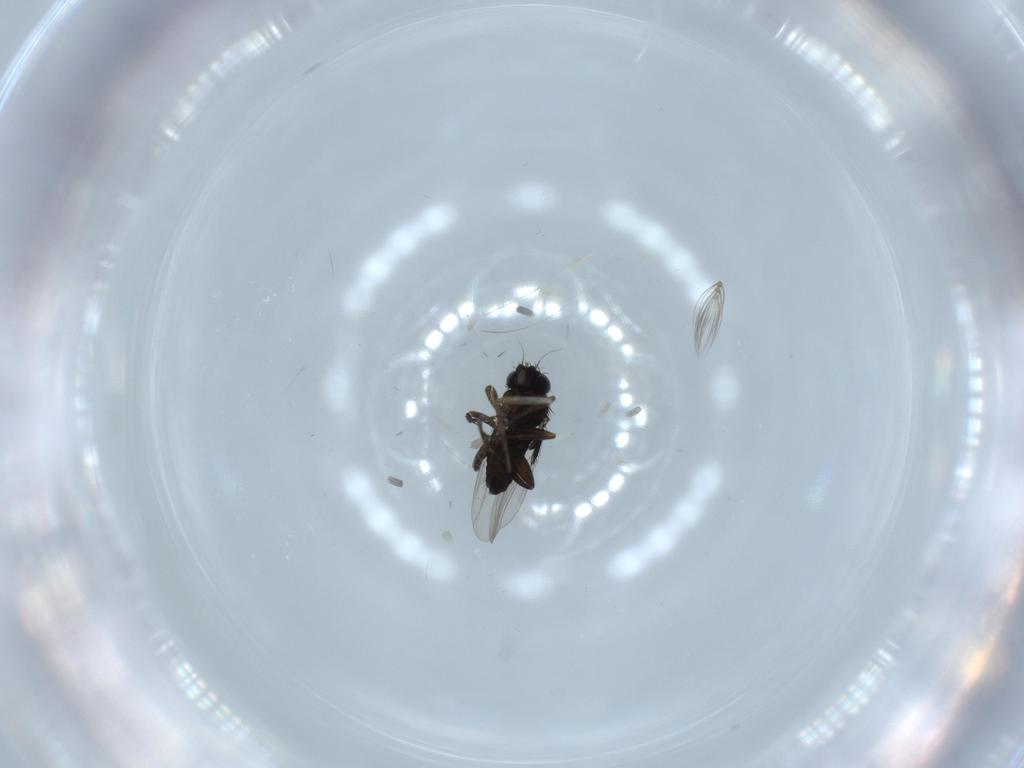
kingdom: Animalia
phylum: Arthropoda
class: Insecta
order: Diptera
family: Phoridae
